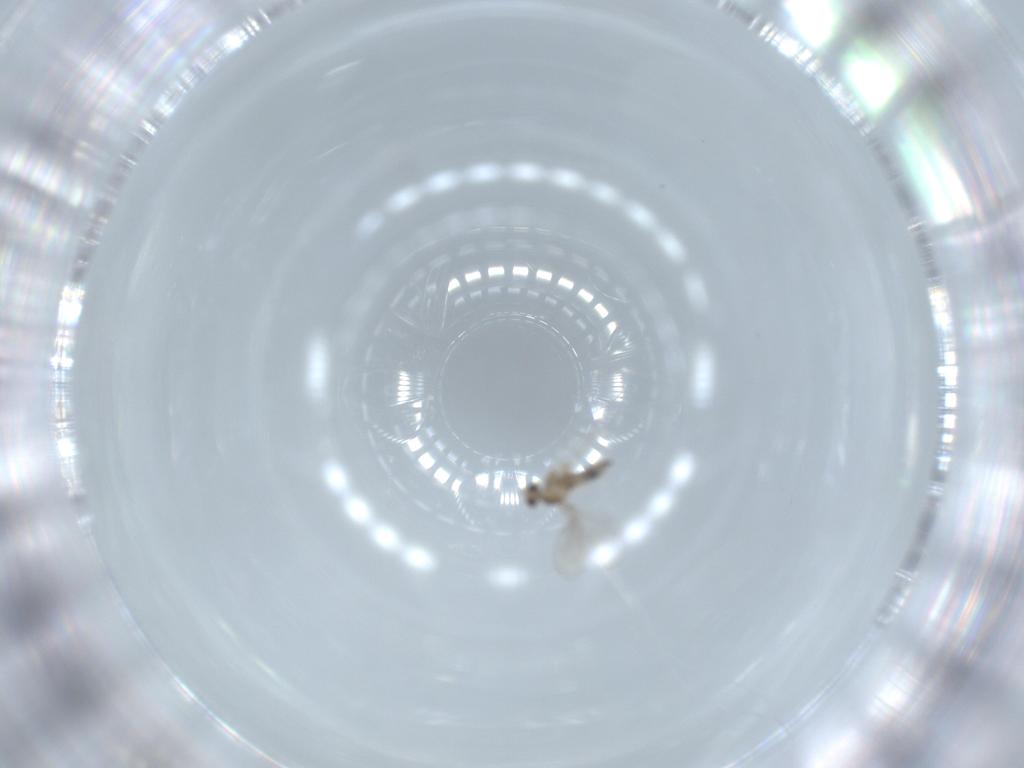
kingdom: Animalia
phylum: Arthropoda
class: Insecta
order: Diptera
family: Cecidomyiidae
